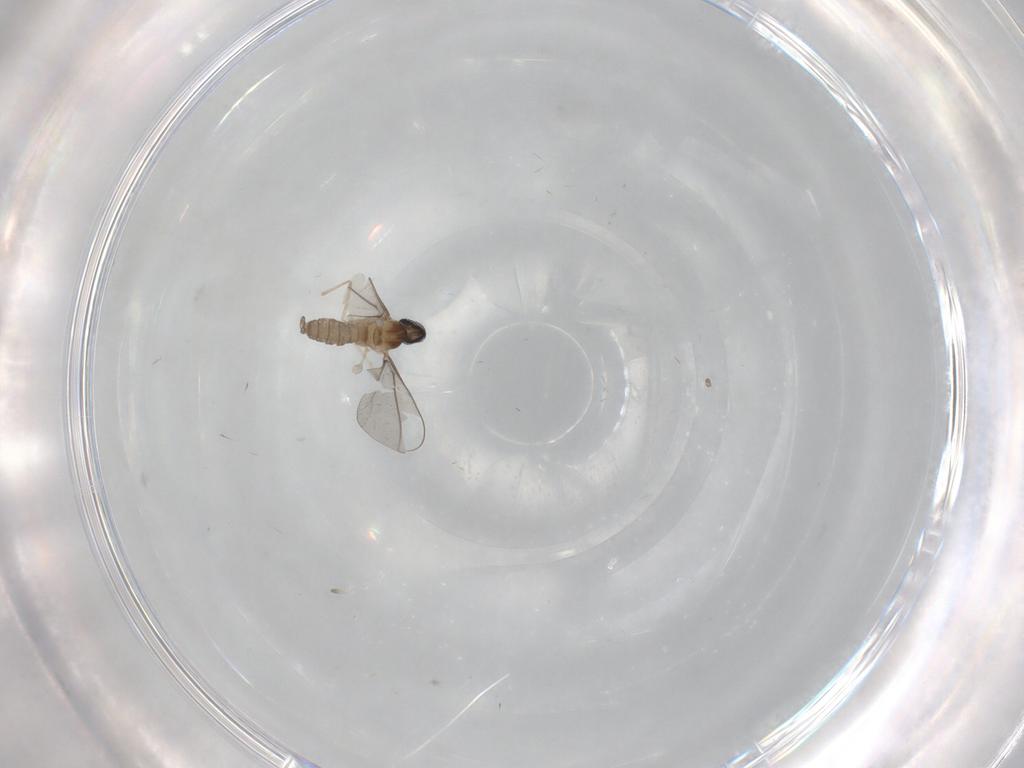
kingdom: Animalia
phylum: Arthropoda
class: Insecta
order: Diptera
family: Cecidomyiidae
